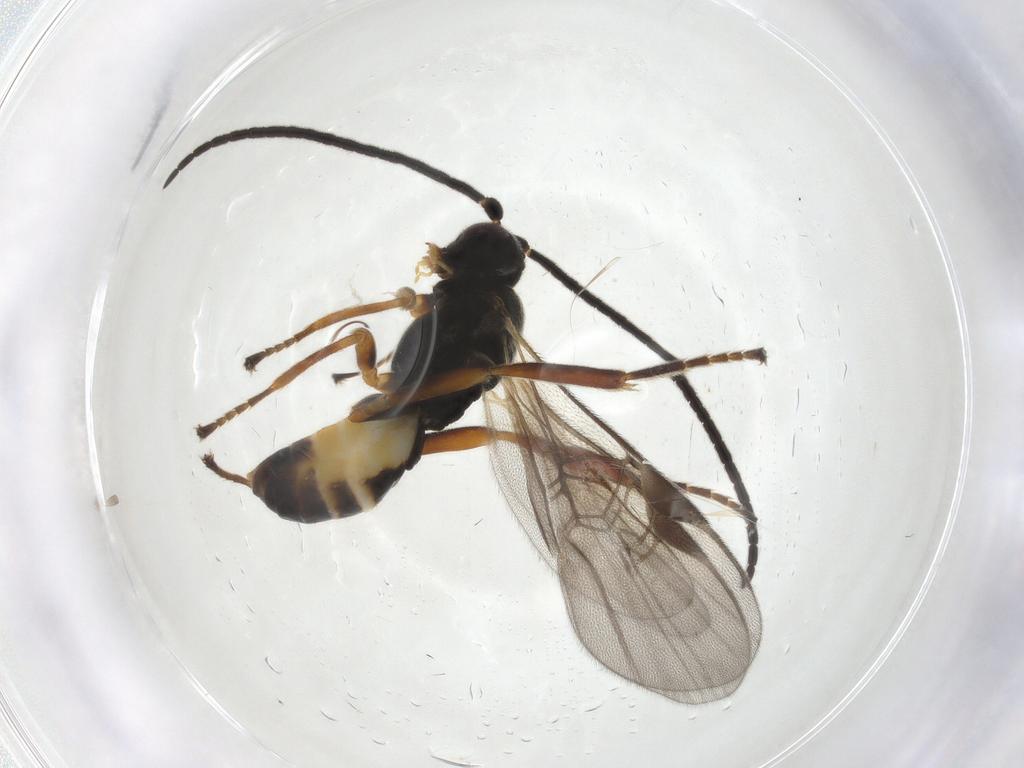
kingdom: Animalia
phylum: Arthropoda
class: Insecta
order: Hymenoptera
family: Braconidae
